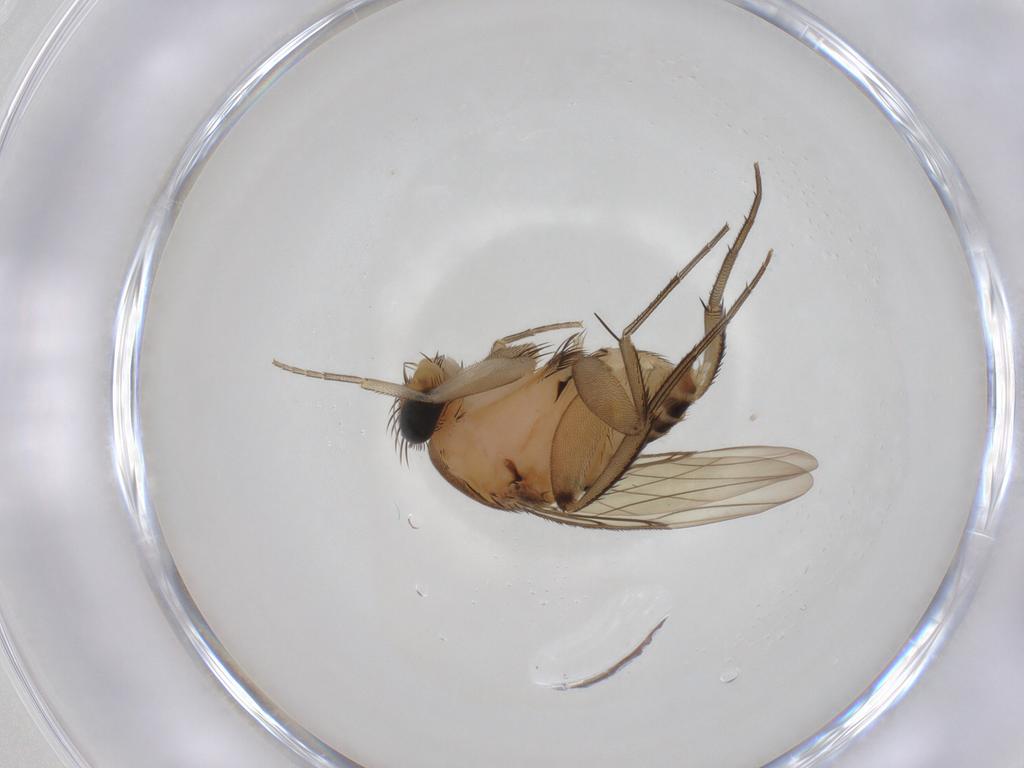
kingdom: Animalia
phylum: Arthropoda
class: Insecta
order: Diptera
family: Phoridae
